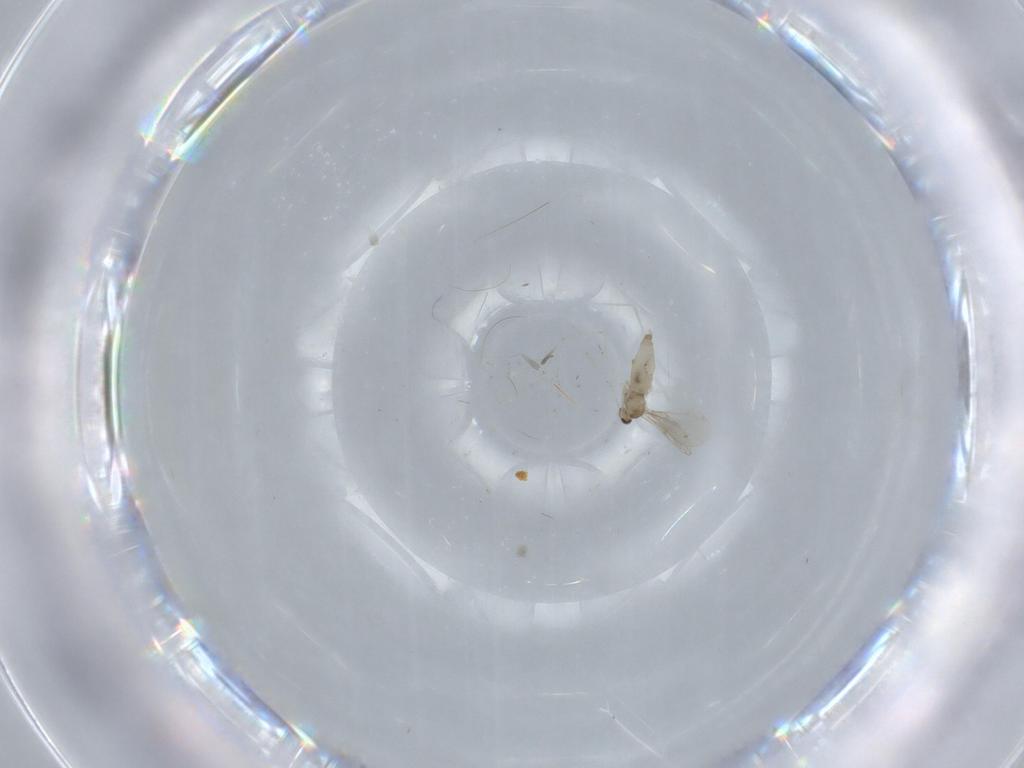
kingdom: Animalia
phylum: Arthropoda
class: Insecta
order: Diptera
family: Cecidomyiidae
